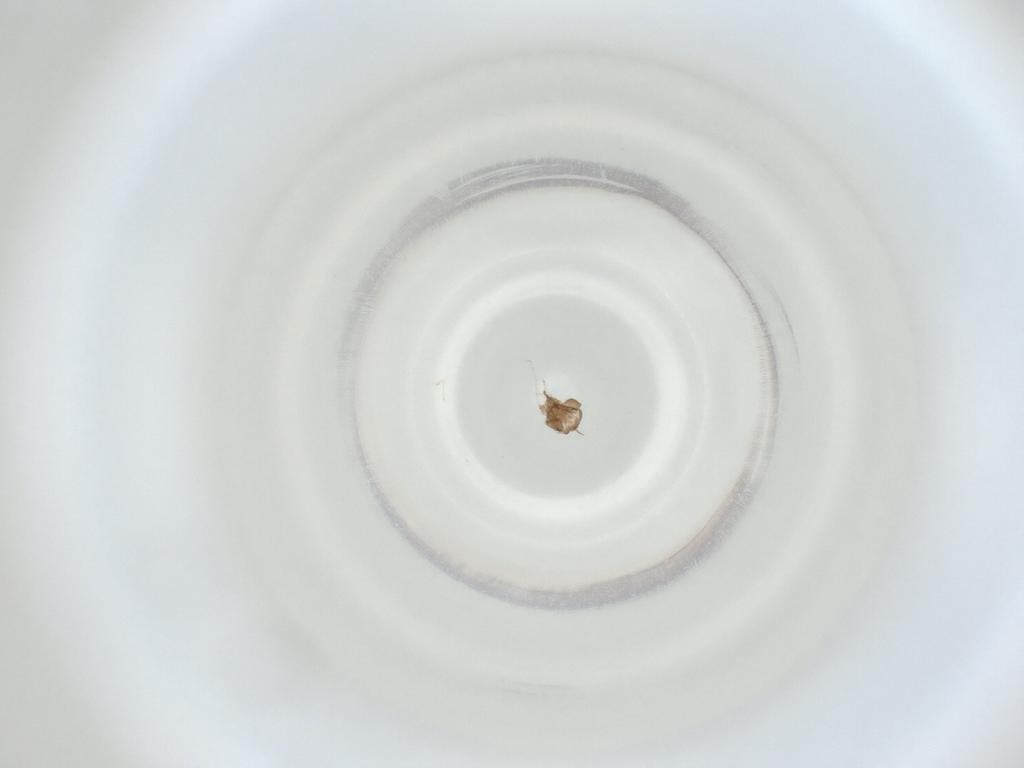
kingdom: Animalia
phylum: Arthropoda
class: Insecta
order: Diptera
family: Cecidomyiidae
